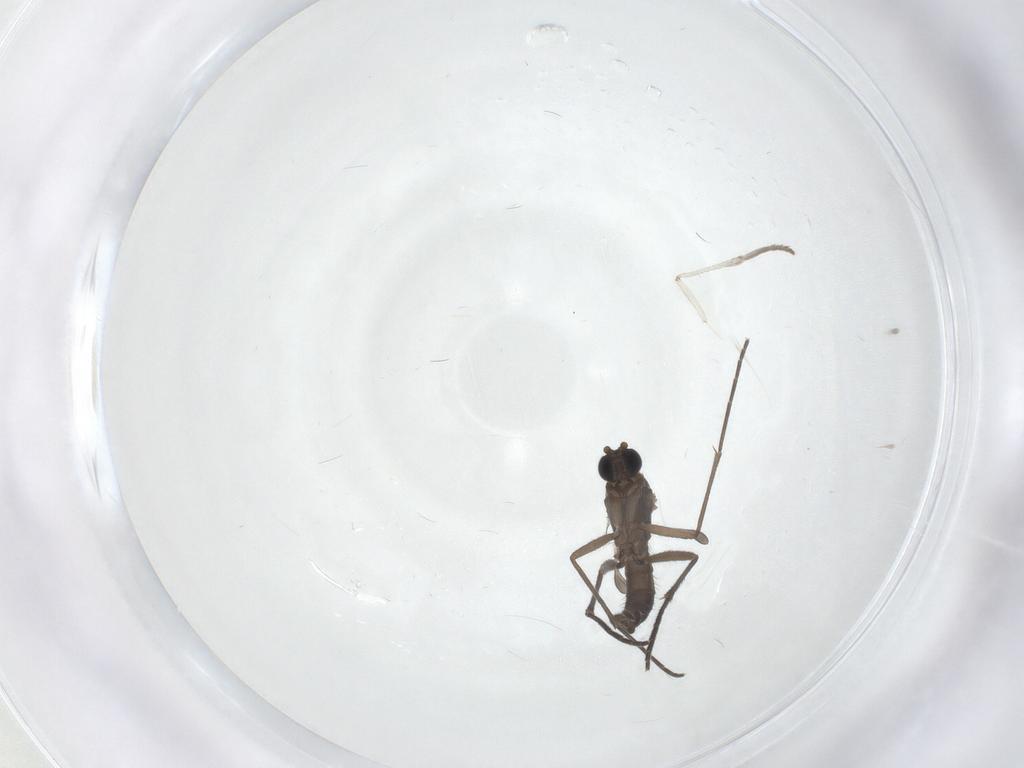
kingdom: Animalia
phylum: Arthropoda
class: Insecta
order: Diptera
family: Sciaridae
